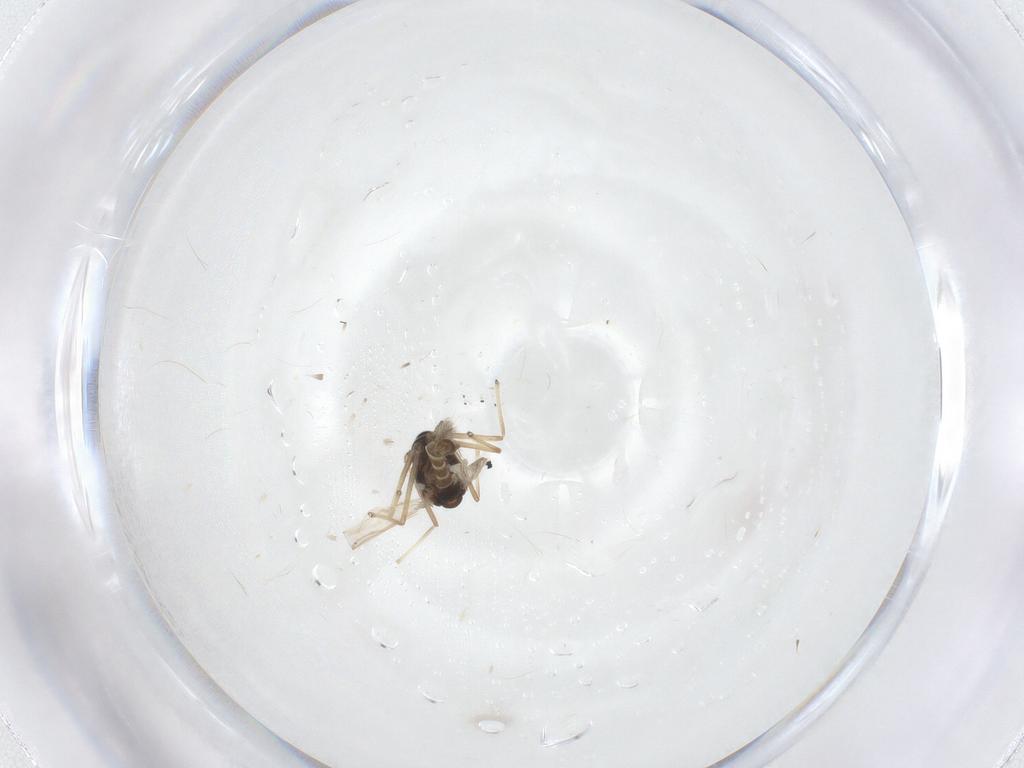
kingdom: Animalia
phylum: Arthropoda
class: Insecta
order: Diptera
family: Chironomidae
